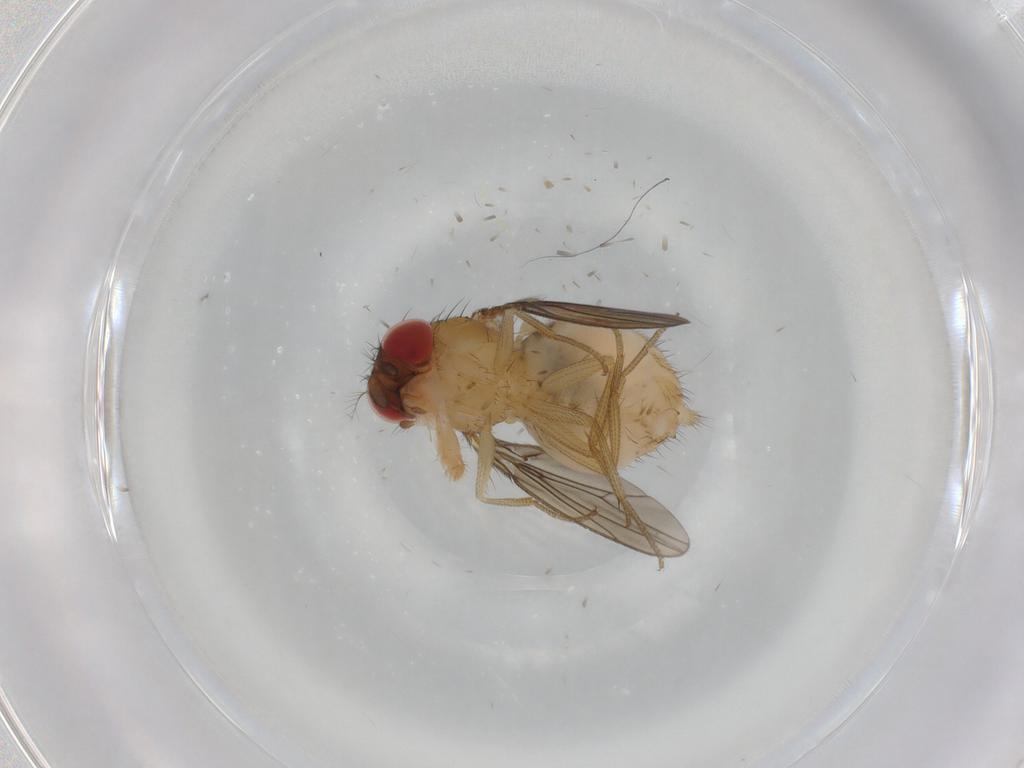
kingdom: Animalia
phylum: Arthropoda
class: Insecta
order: Diptera
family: Drosophilidae
